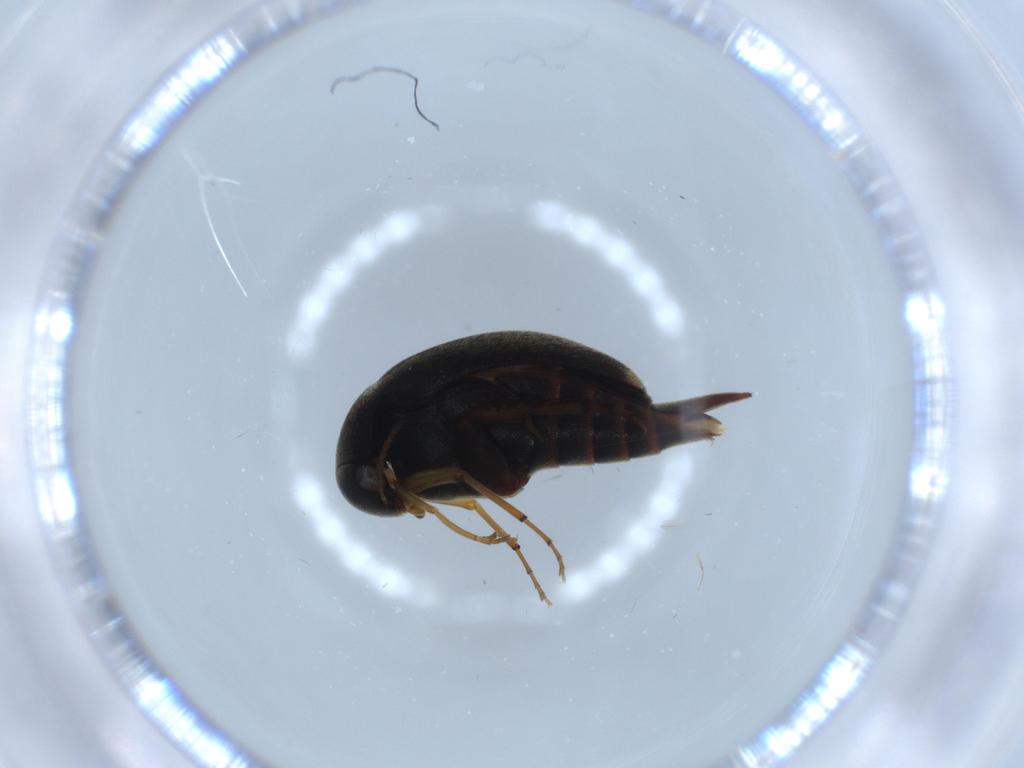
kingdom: Animalia
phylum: Arthropoda
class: Insecta
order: Coleoptera
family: Mordellidae
